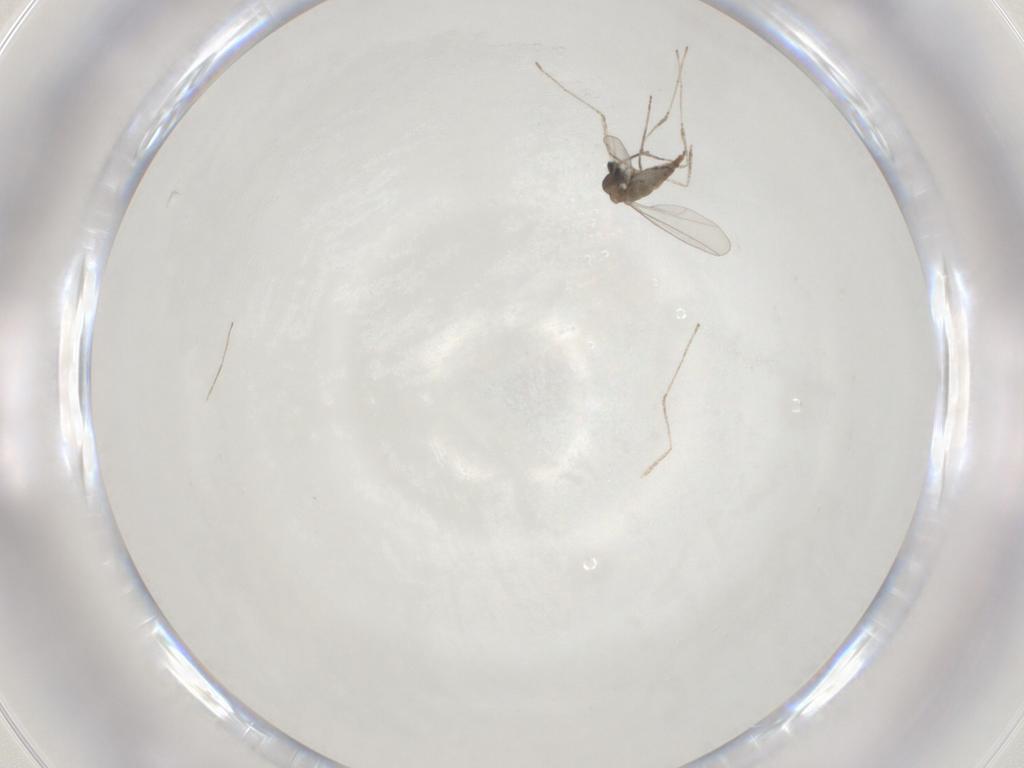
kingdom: Animalia
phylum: Arthropoda
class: Insecta
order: Diptera
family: Cecidomyiidae
